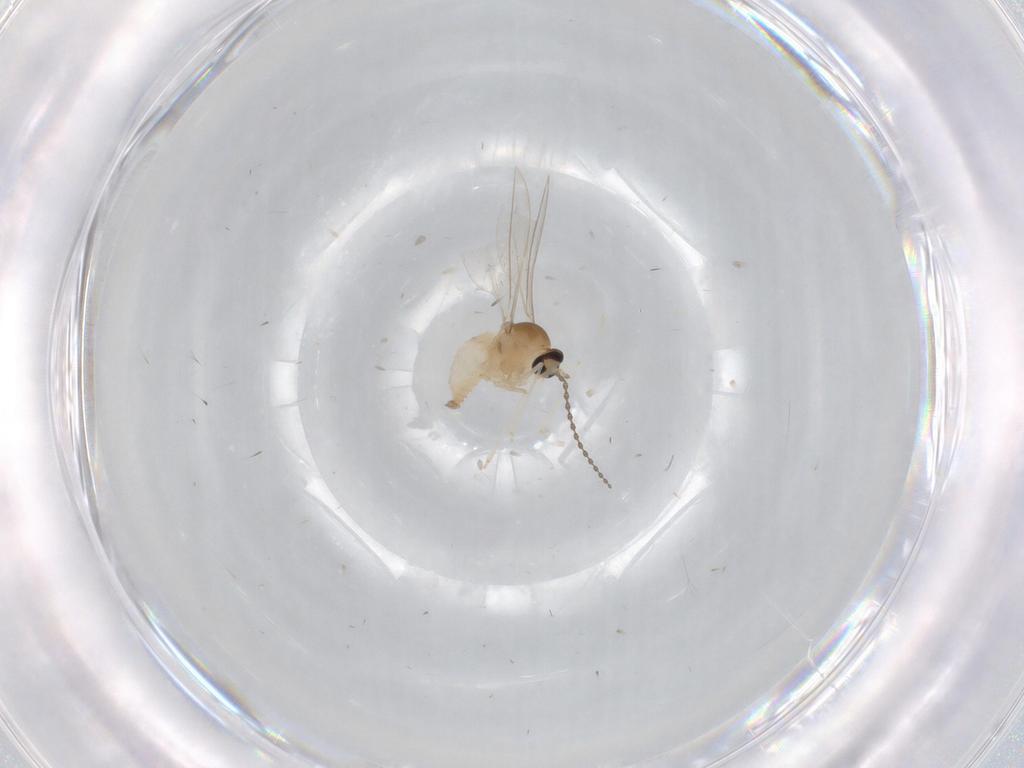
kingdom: Animalia
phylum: Arthropoda
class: Insecta
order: Diptera
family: Cecidomyiidae
